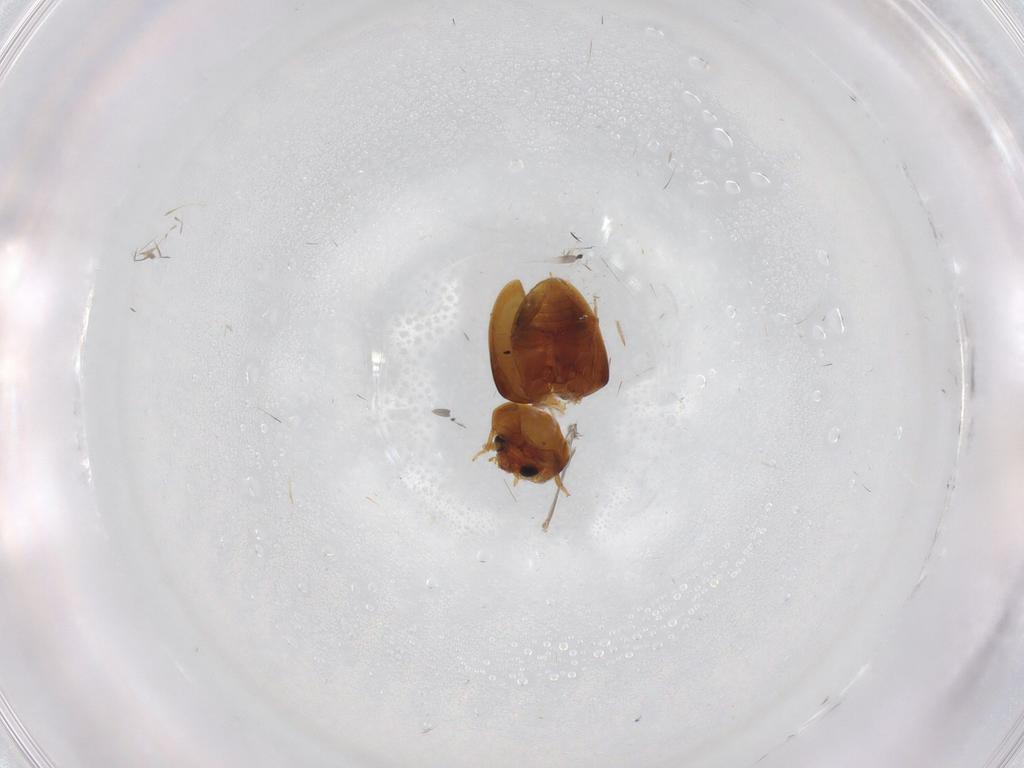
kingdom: Animalia
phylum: Arthropoda
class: Insecta
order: Coleoptera
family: Phalacridae
